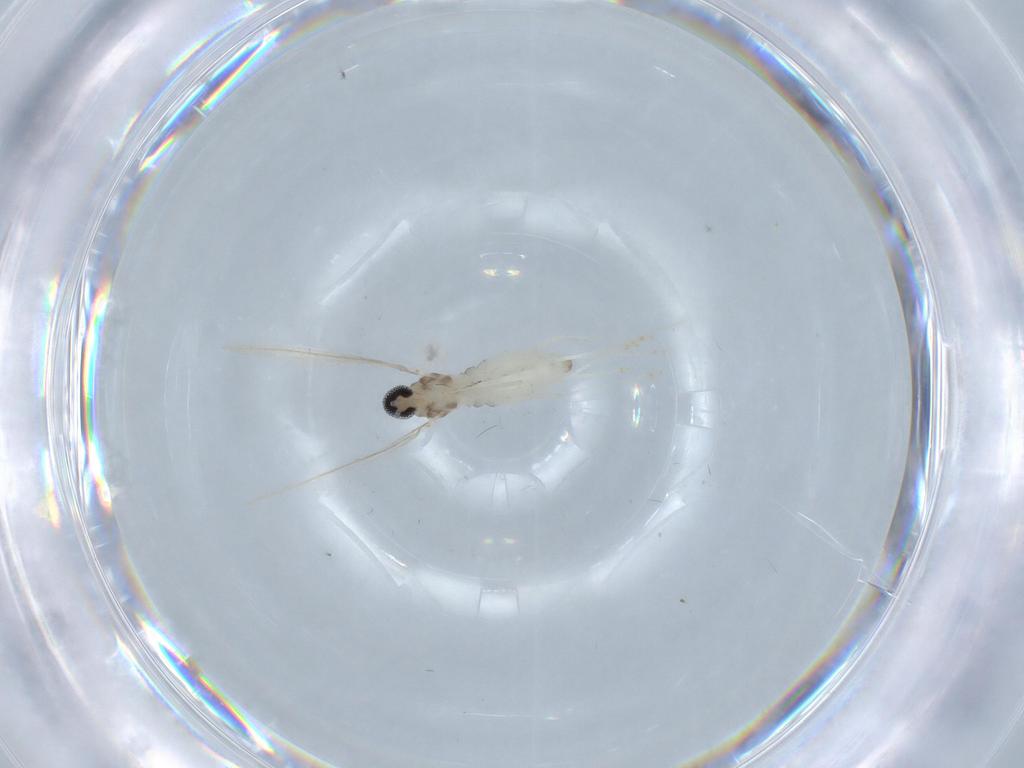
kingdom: Animalia
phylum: Arthropoda
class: Insecta
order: Diptera
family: Cecidomyiidae
